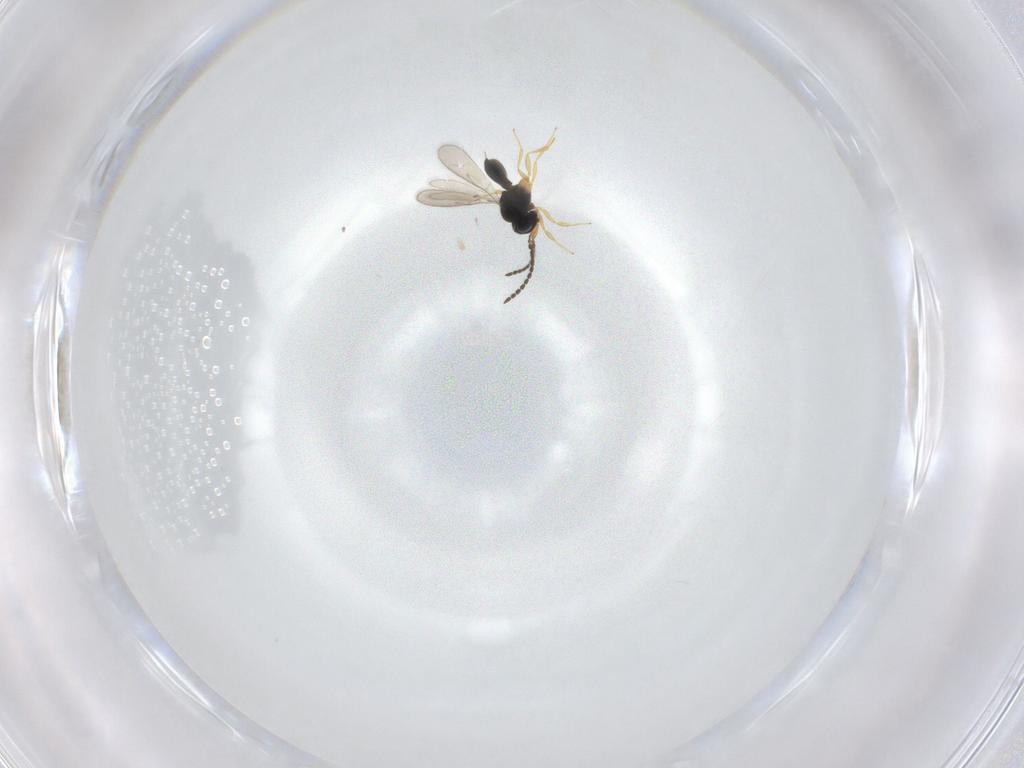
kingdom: Animalia
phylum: Arthropoda
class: Insecta
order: Hymenoptera
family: Scelionidae
